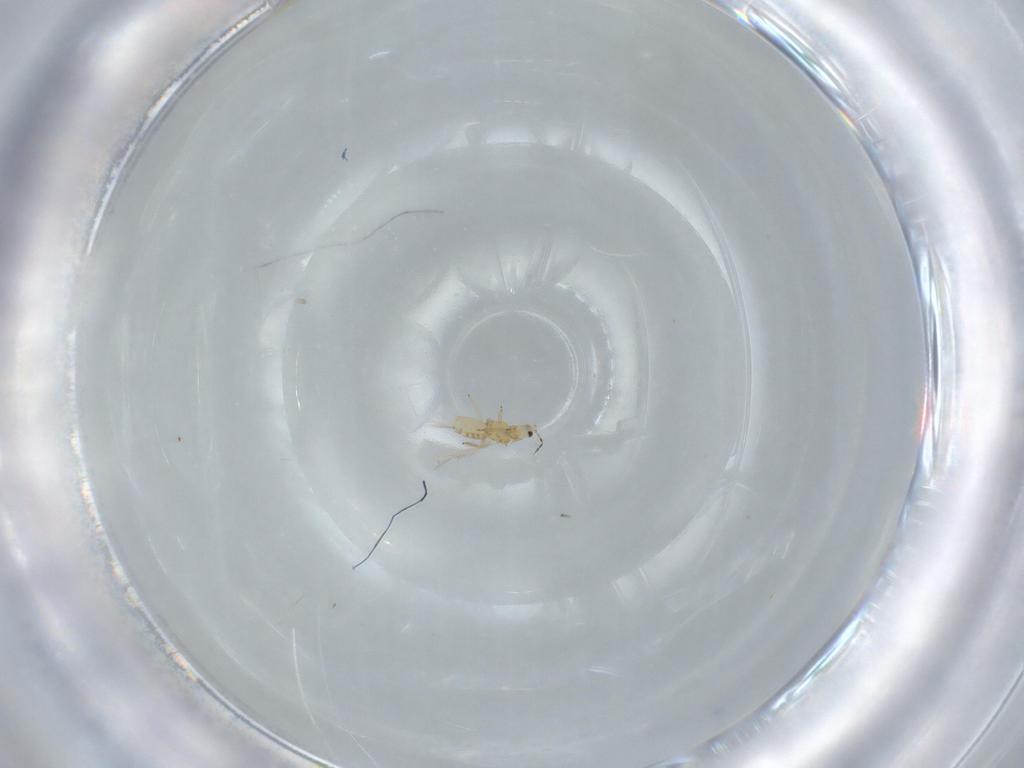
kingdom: Animalia
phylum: Arthropoda
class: Insecta
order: Thysanoptera
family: Thripidae
